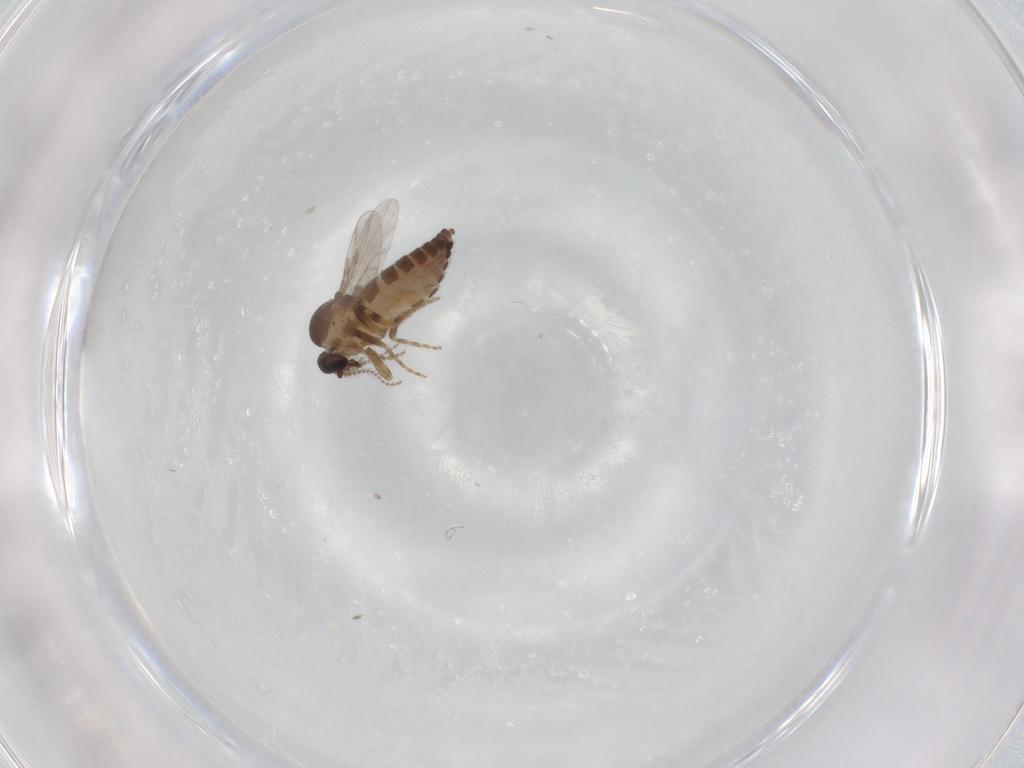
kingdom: Animalia
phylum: Arthropoda
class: Insecta
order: Diptera
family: Ceratopogonidae
